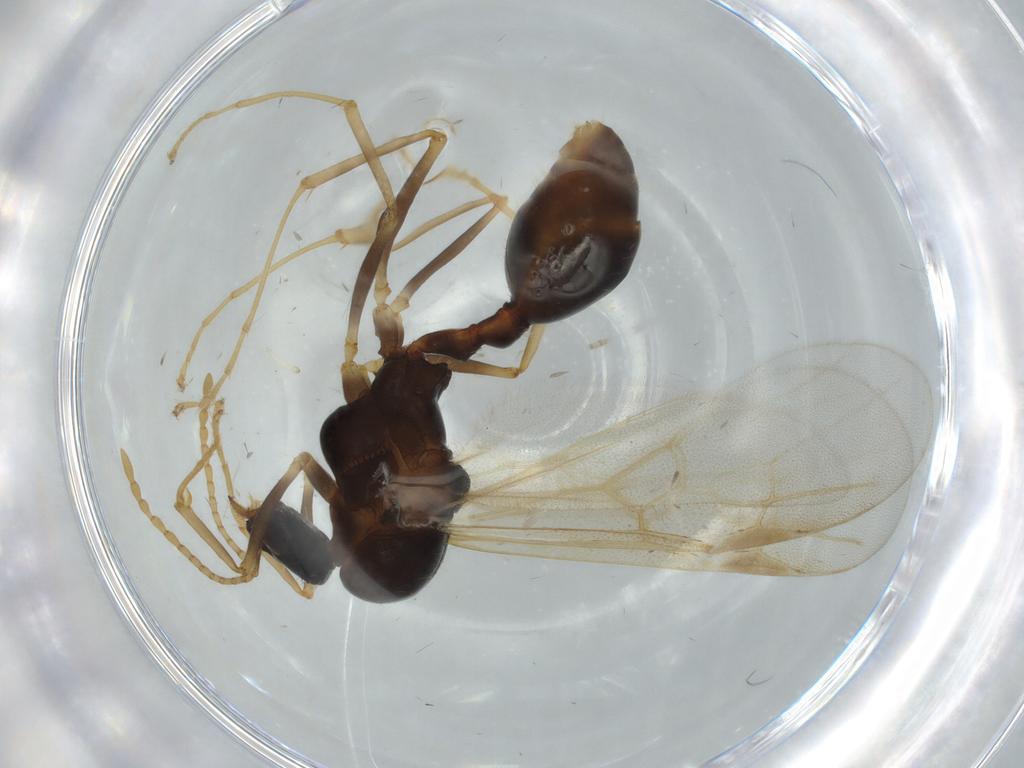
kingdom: Animalia
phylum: Arthropoda
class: Insecta
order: Hymenoptera
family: Formicidae
